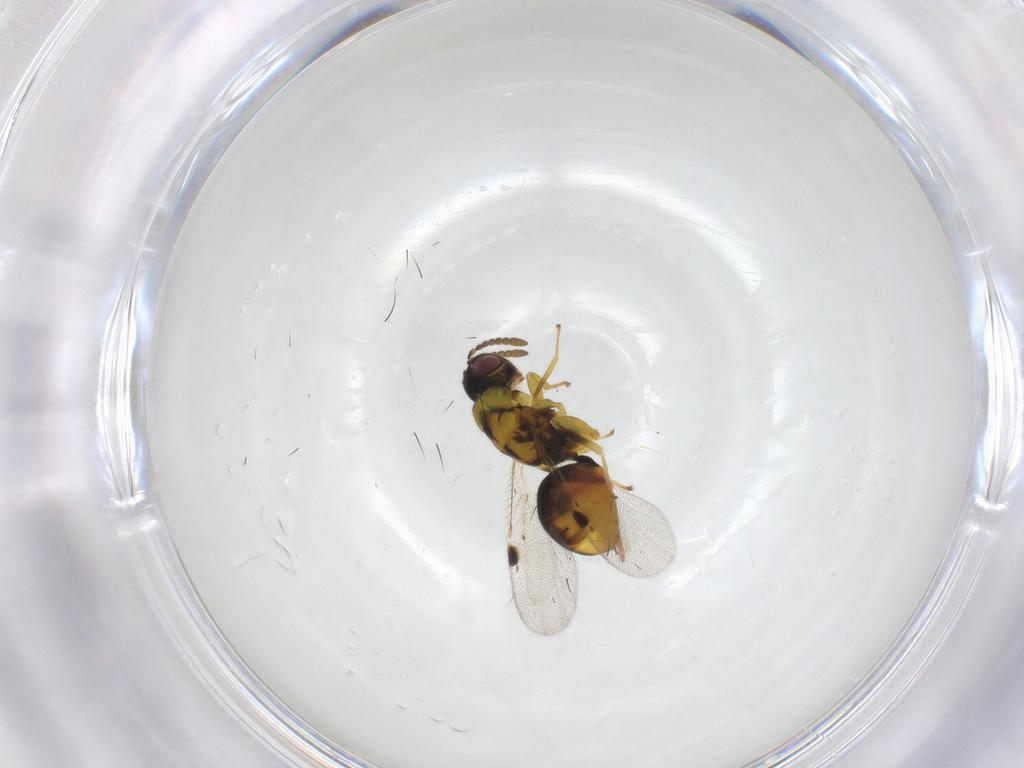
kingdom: Animalia
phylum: Arthropoda
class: Insecta
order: Hymenoptera
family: Eurytomidae
